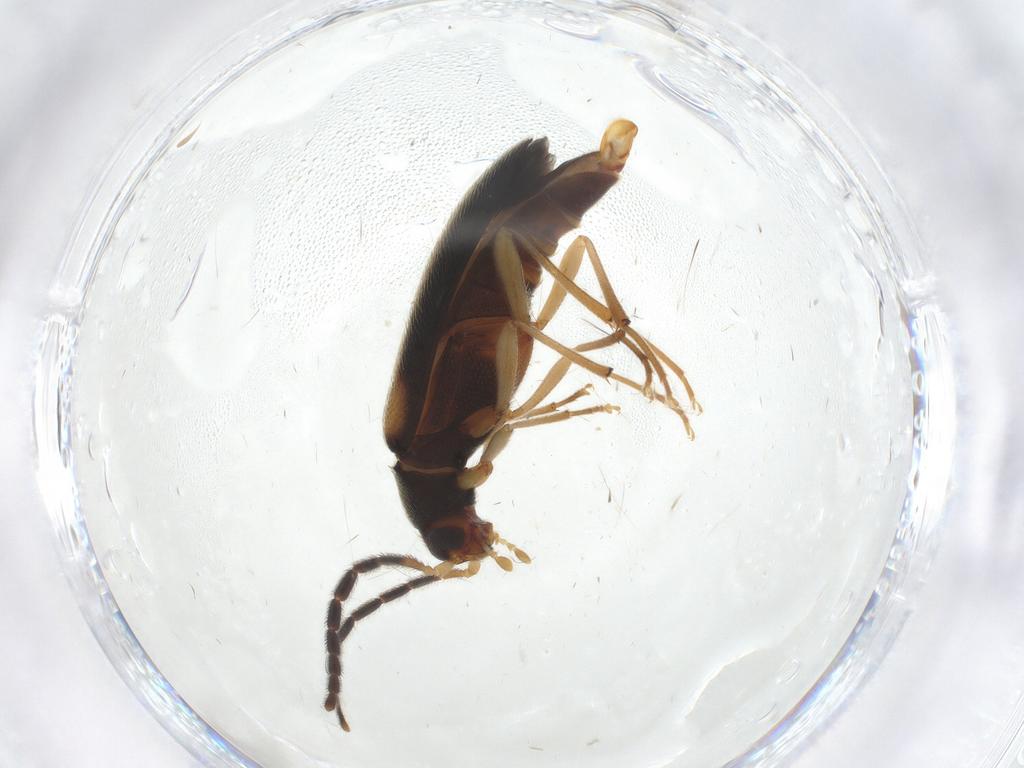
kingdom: Animalia
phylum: Arthropoda
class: Insecta
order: Coleoptera
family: Melandryidae
